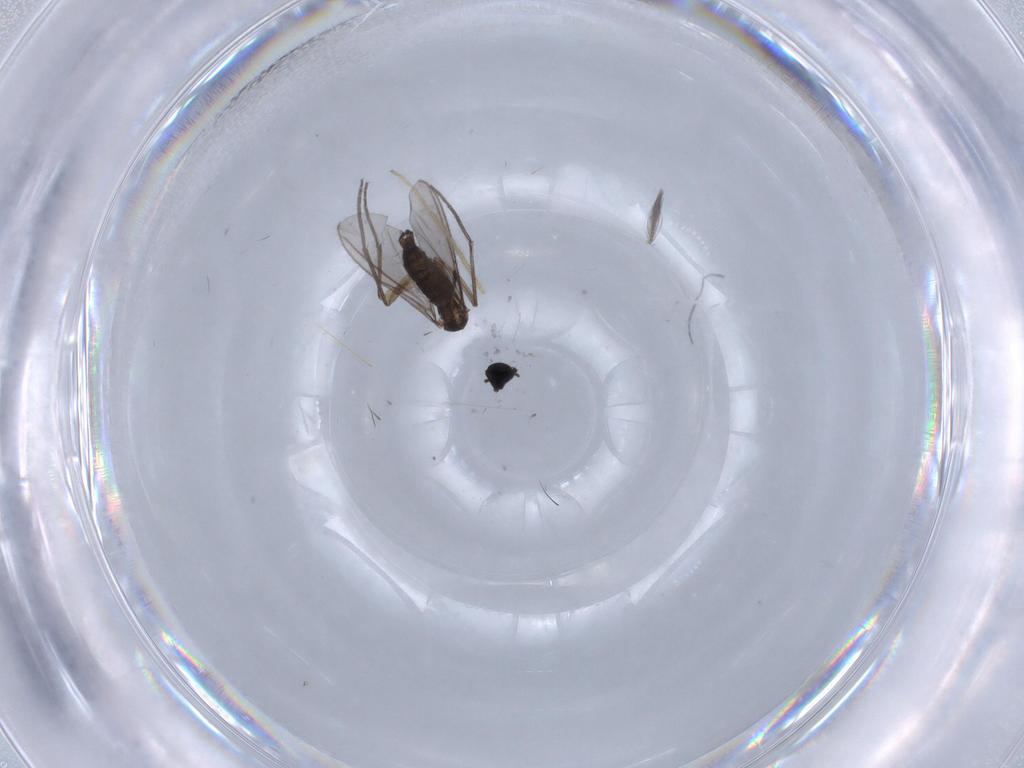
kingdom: Animalia
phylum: Arthropoda
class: Insecta
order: Diptera
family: Sciaridae
